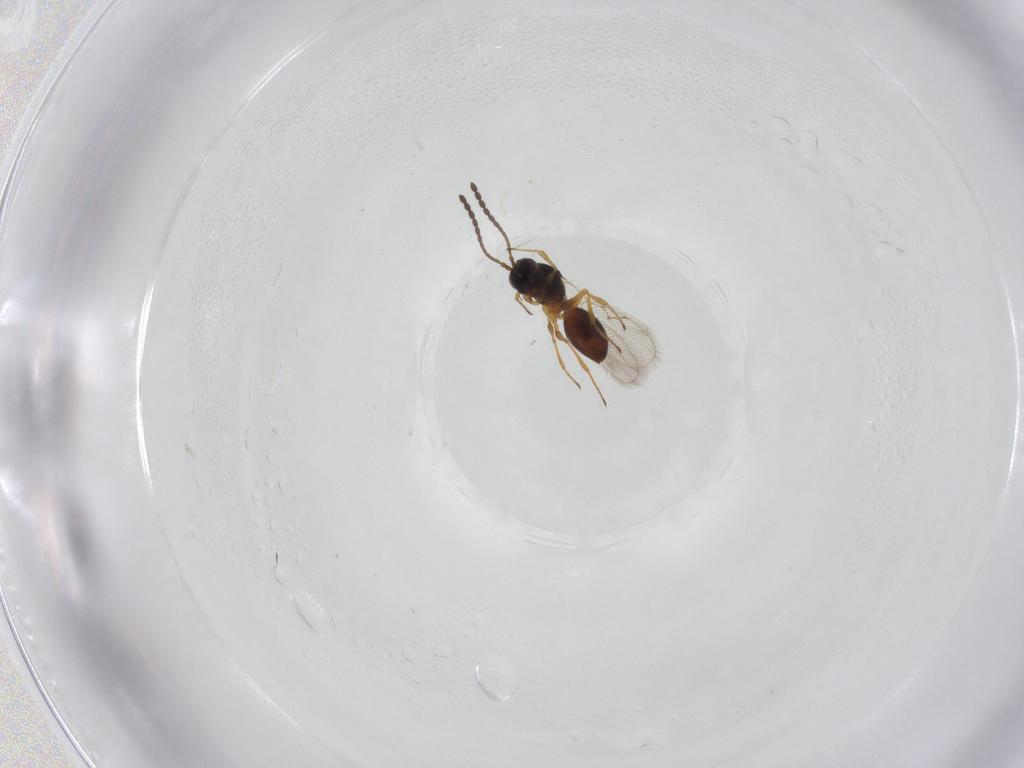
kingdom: Animalia
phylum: Arthropoda
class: Insecta
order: Hymenoptera
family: Figitidae
